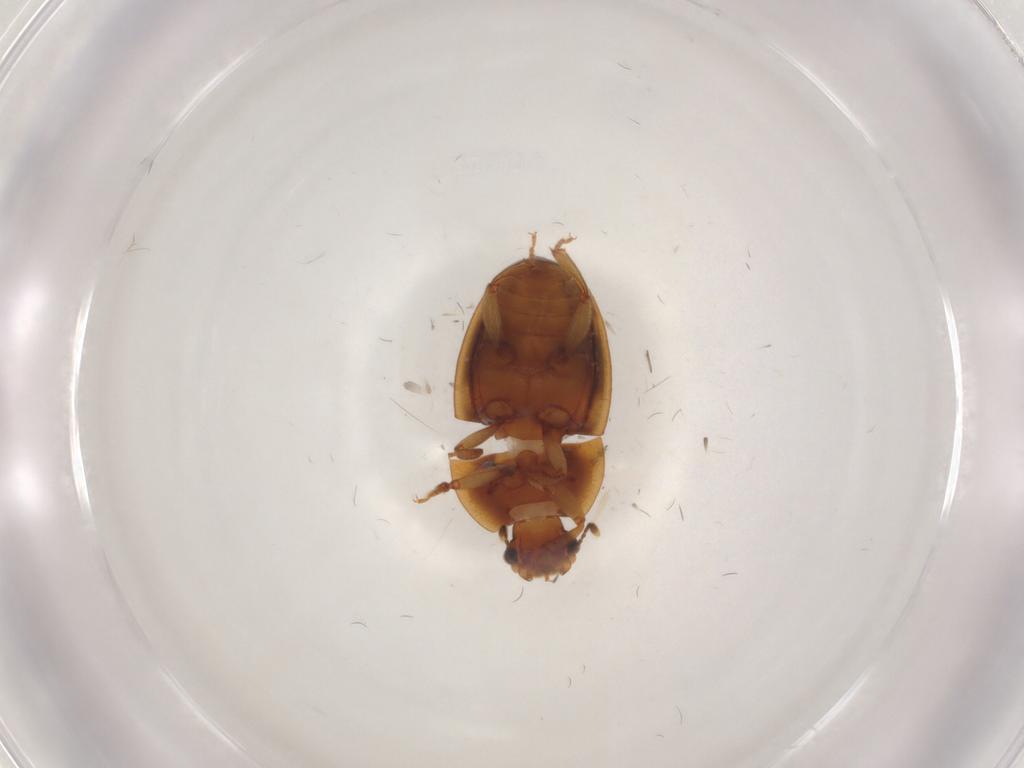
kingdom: Animalia
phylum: Arthropoda
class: Insecta
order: Coleoptera
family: Nitidulidae
